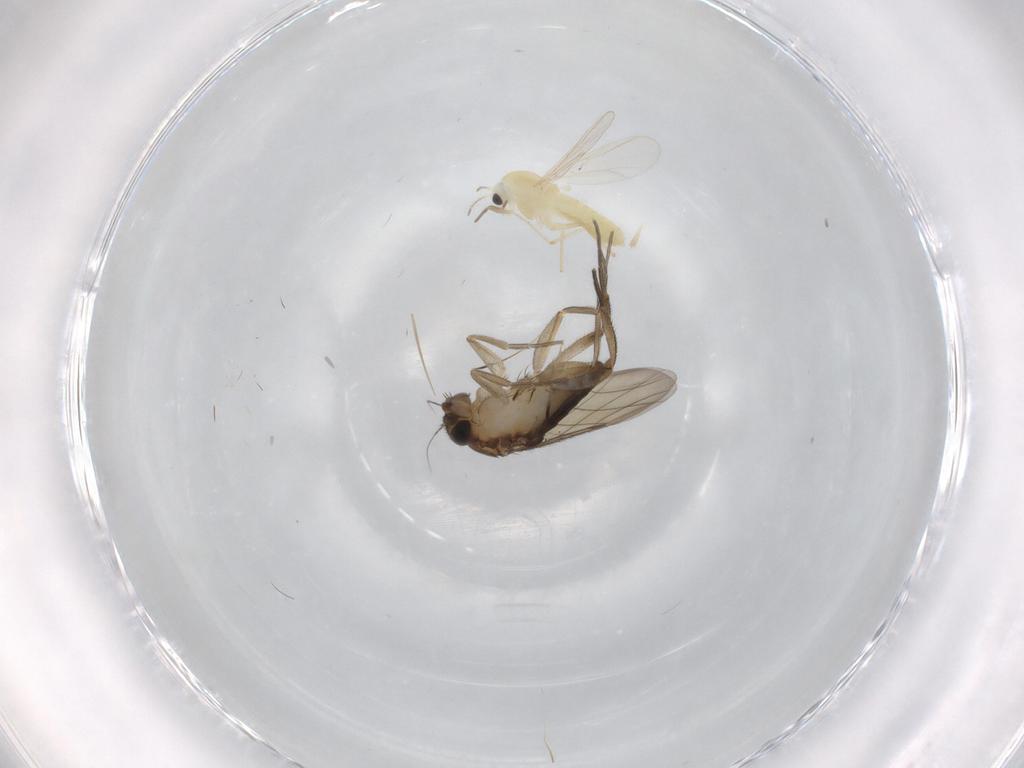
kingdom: Animalia
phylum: Arthropoda
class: Insecta
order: Diptera
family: Phoridae
